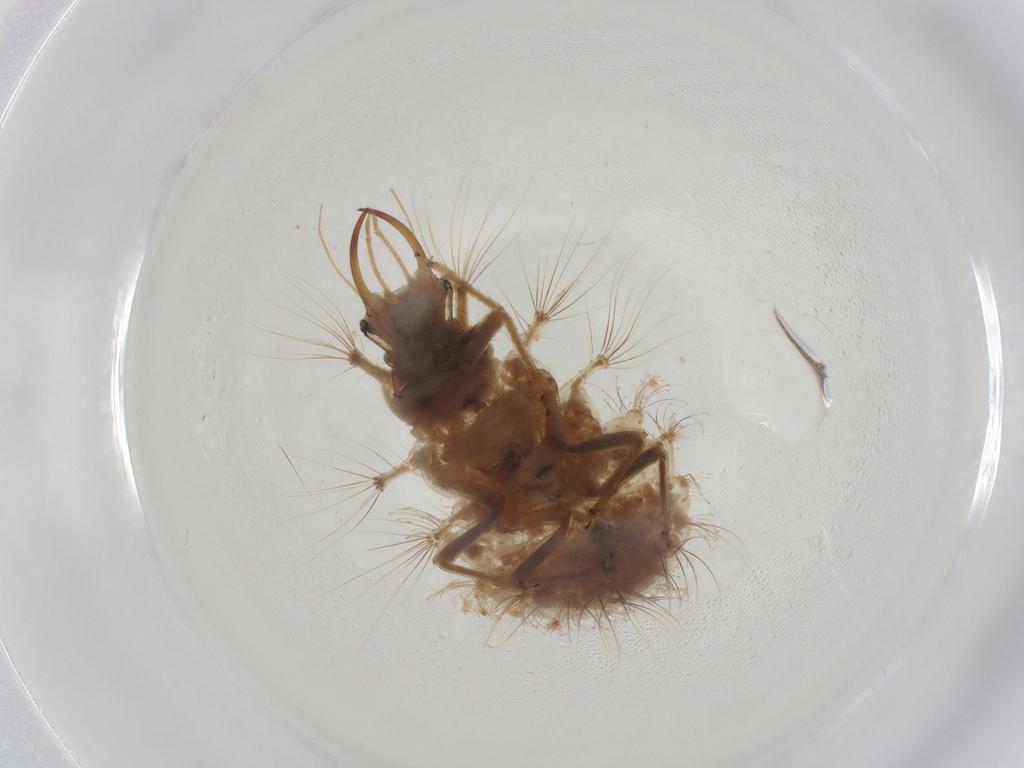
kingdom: Animalia
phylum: Arthropoda
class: Insecta
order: Neuroptera
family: Chrysopidae
